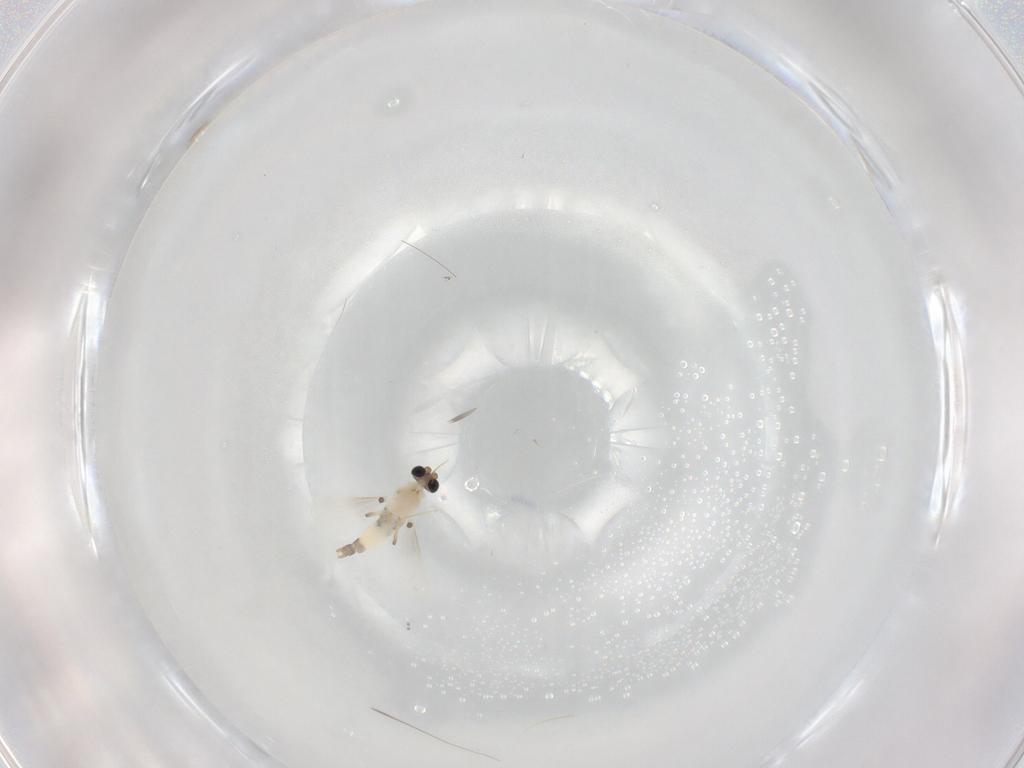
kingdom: Animalia
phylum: Arthropoda
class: Insecta
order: Diptera
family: Chironomidae
